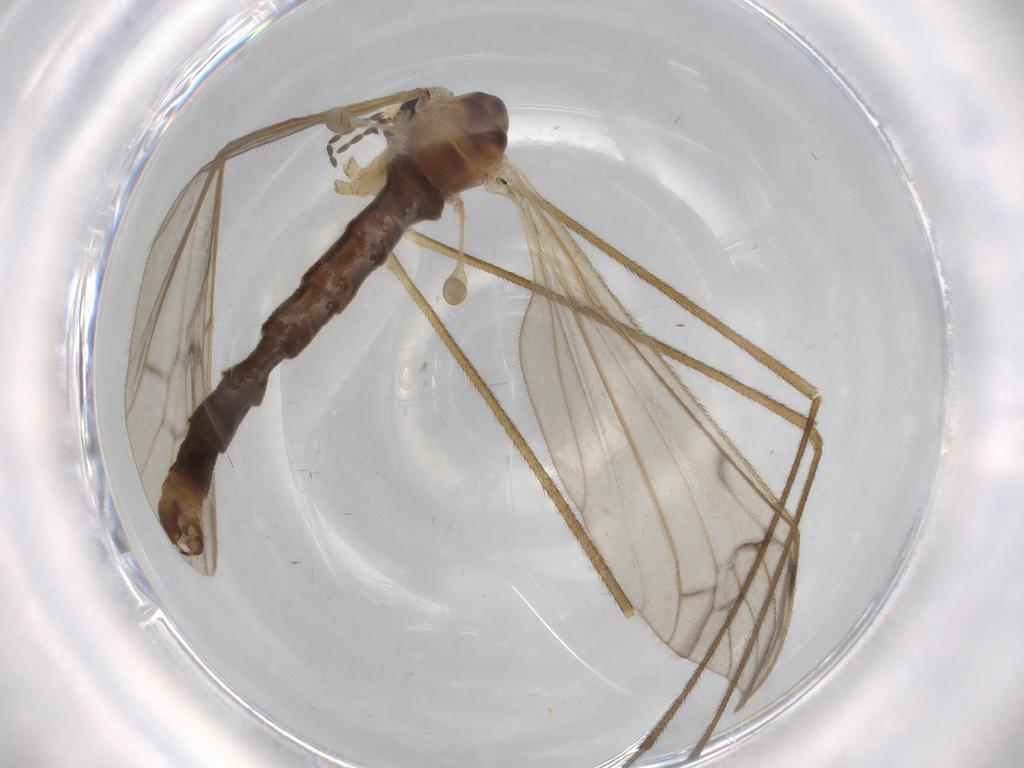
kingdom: Animalia
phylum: Arthropoda
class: Insecta
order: Diptera
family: Cecidomyiidae
